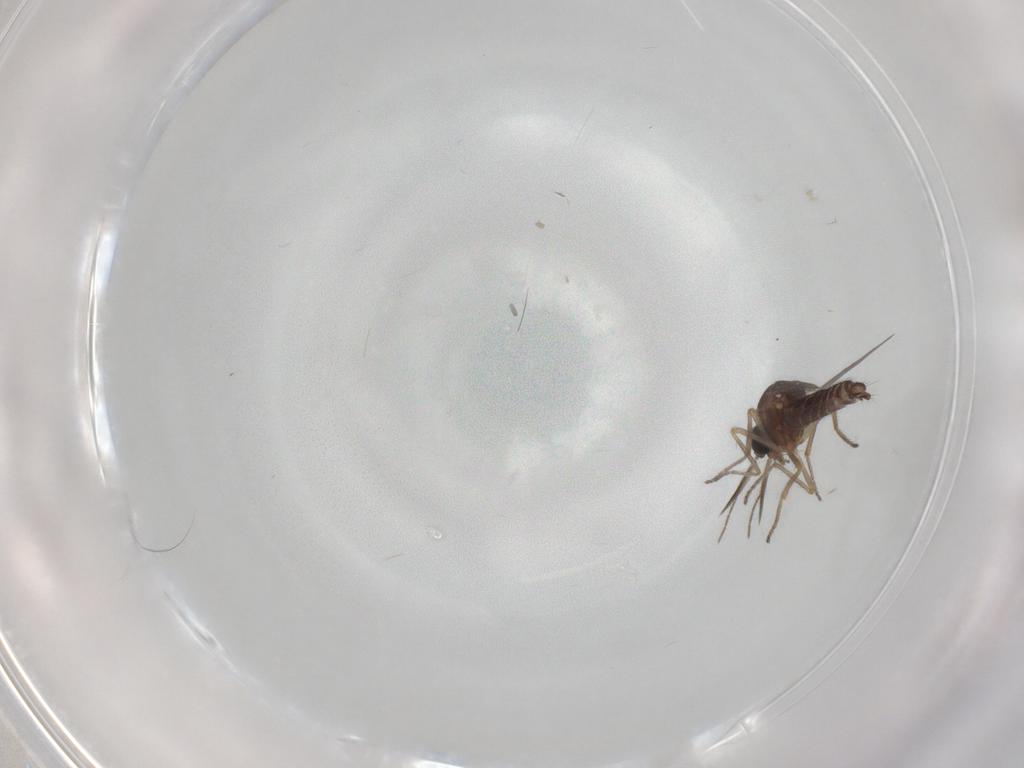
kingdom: Animalia
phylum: Arthropoda
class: Insecta
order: Diptera
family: Ceratopogonidae
